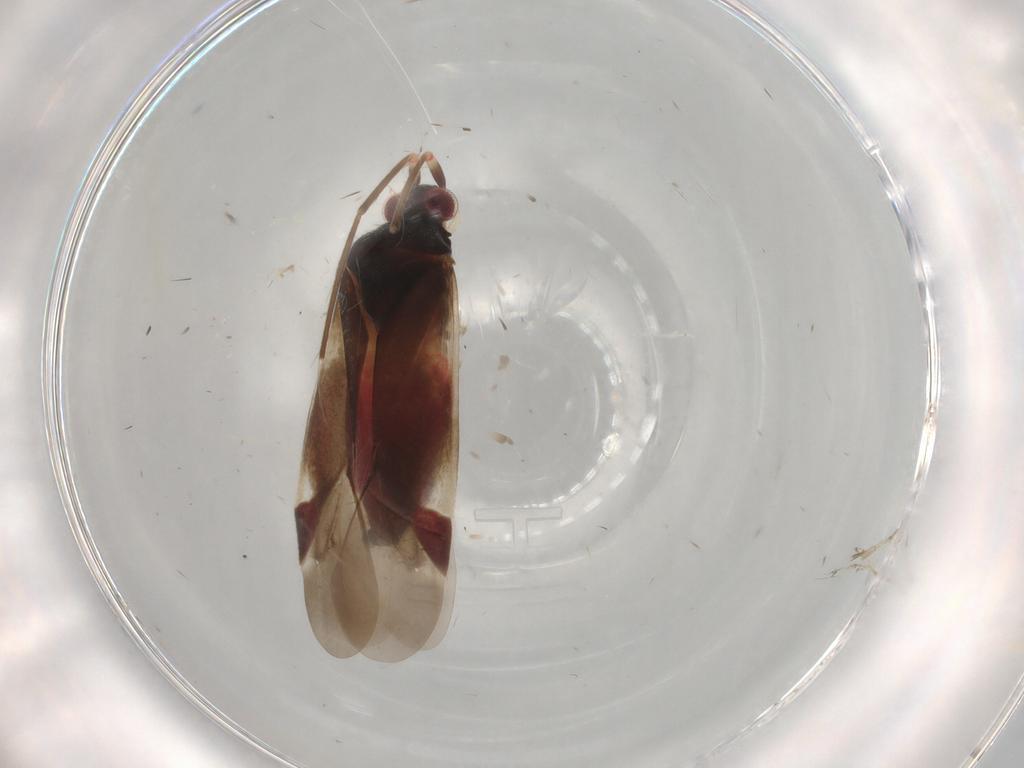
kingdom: Animalia
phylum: Arthropoda
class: Insecta
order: Hemiptera
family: Miridae
